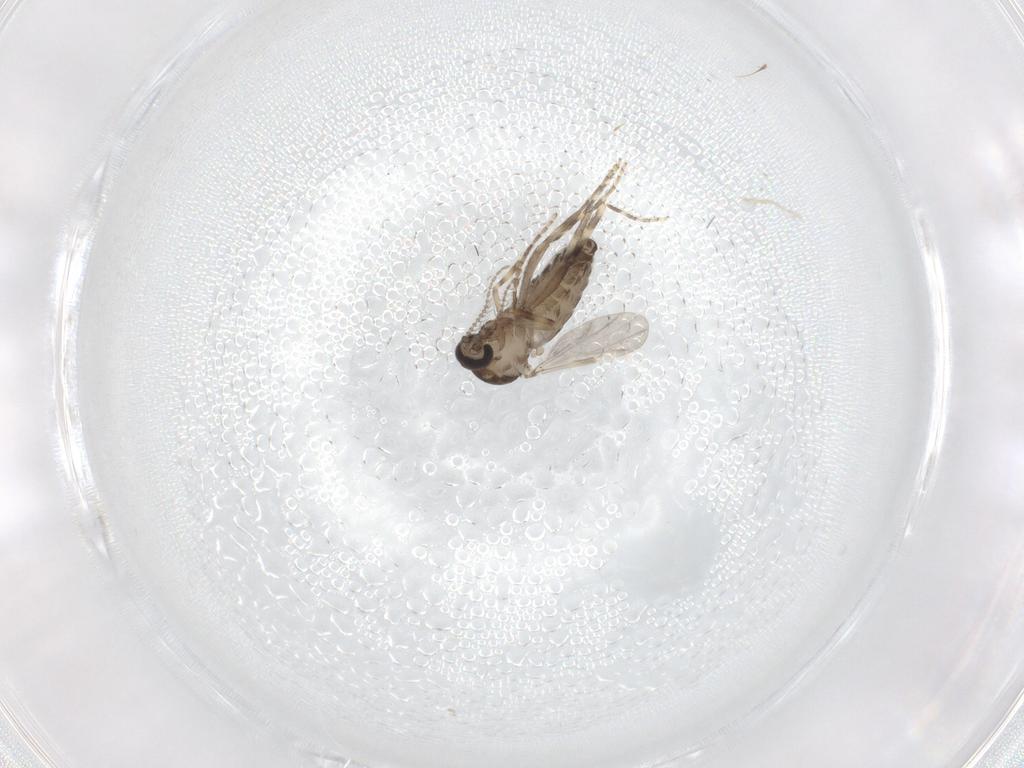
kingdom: Animalia
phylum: Arthropoda
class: Insecta
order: Diptera
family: Ceratopogonidae
